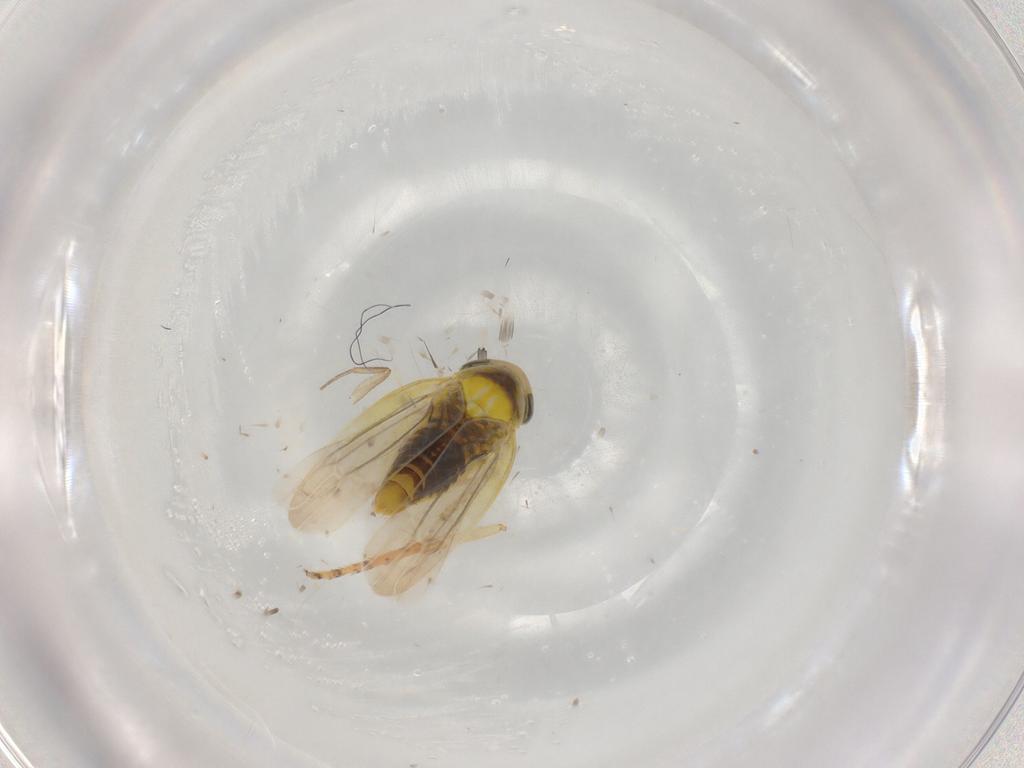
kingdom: Animalia
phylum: Arthropoda
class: Insecta
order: Hemiptera
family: Cicadellidae
